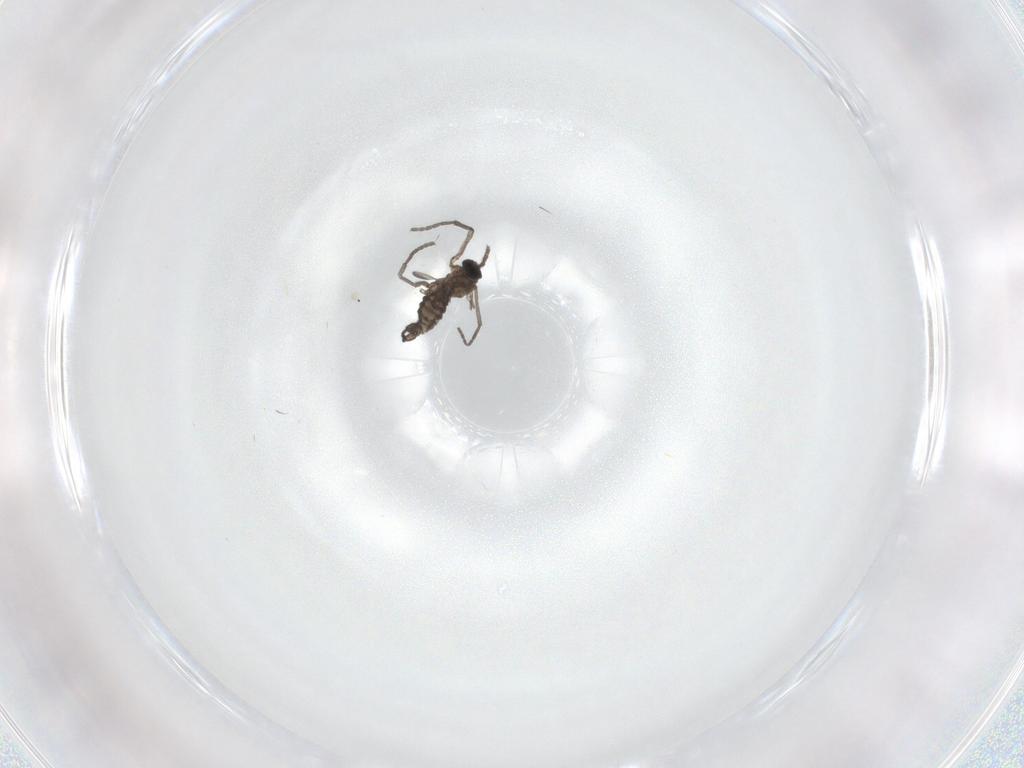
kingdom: Animalia
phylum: Arthropoda
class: Insecta
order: Diptera
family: Sciaridae
